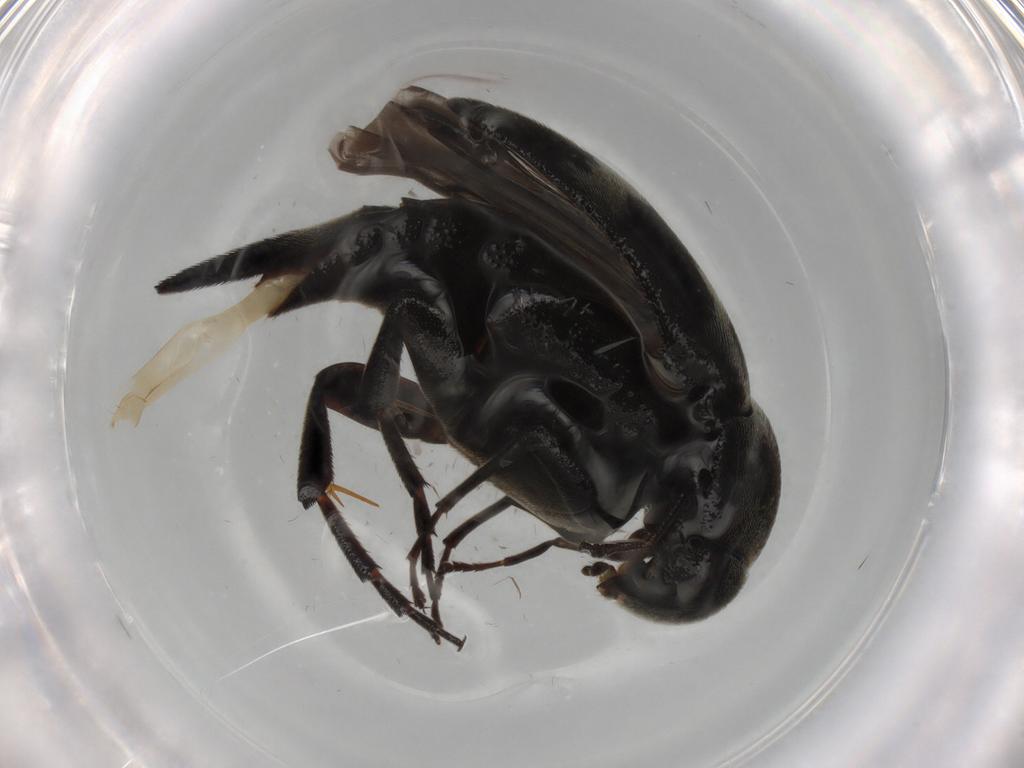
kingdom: Animalia
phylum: Arthropoda
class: Insecta
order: Coleoptera
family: Mordellidae
